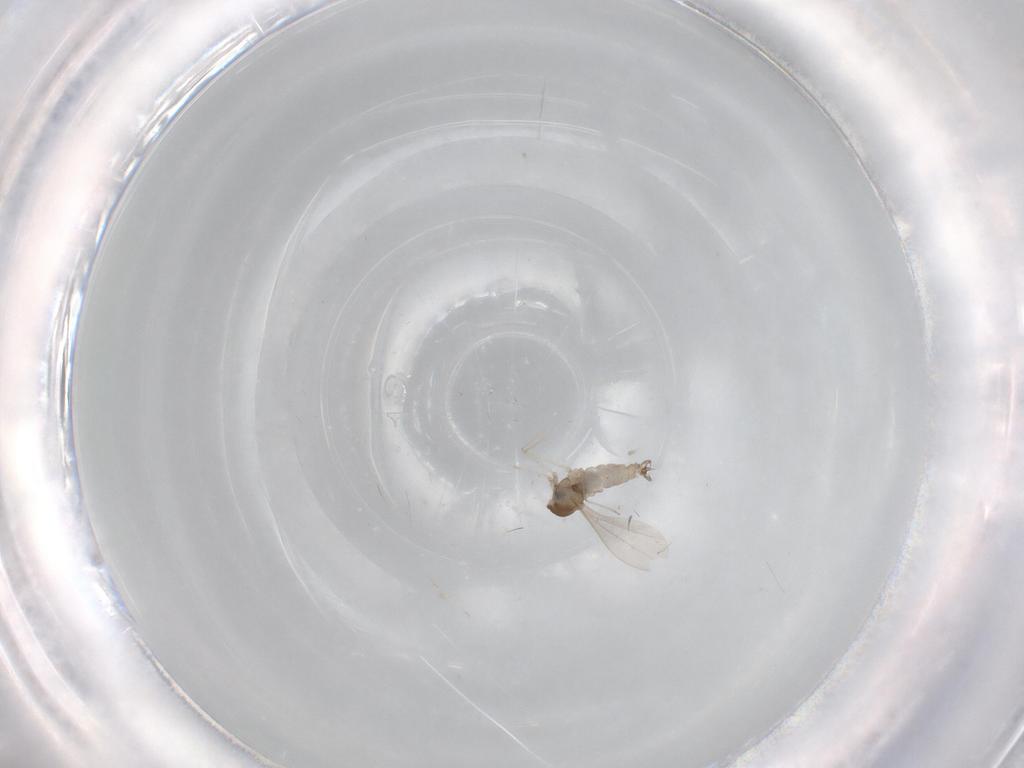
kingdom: Animalia
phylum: Arthropoda
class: Insecta
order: Diptera
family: Cecidomyiidae
